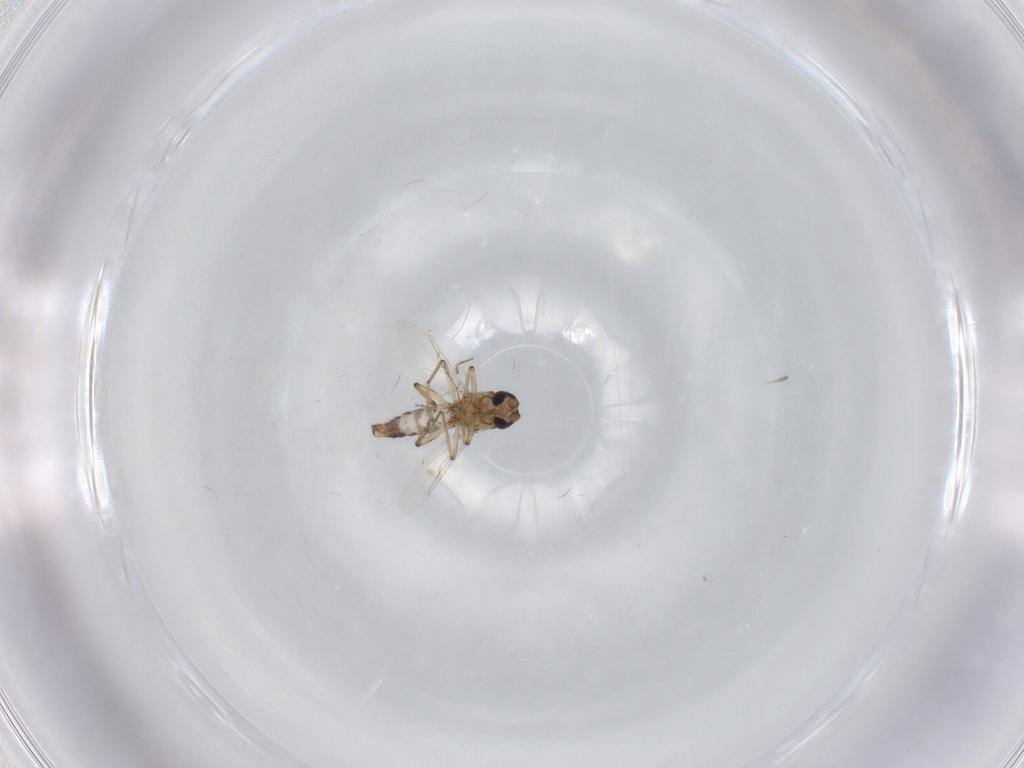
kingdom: Animalia
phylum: Arthropoda
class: Insecta
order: Diptera
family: Ceratopogonidae
